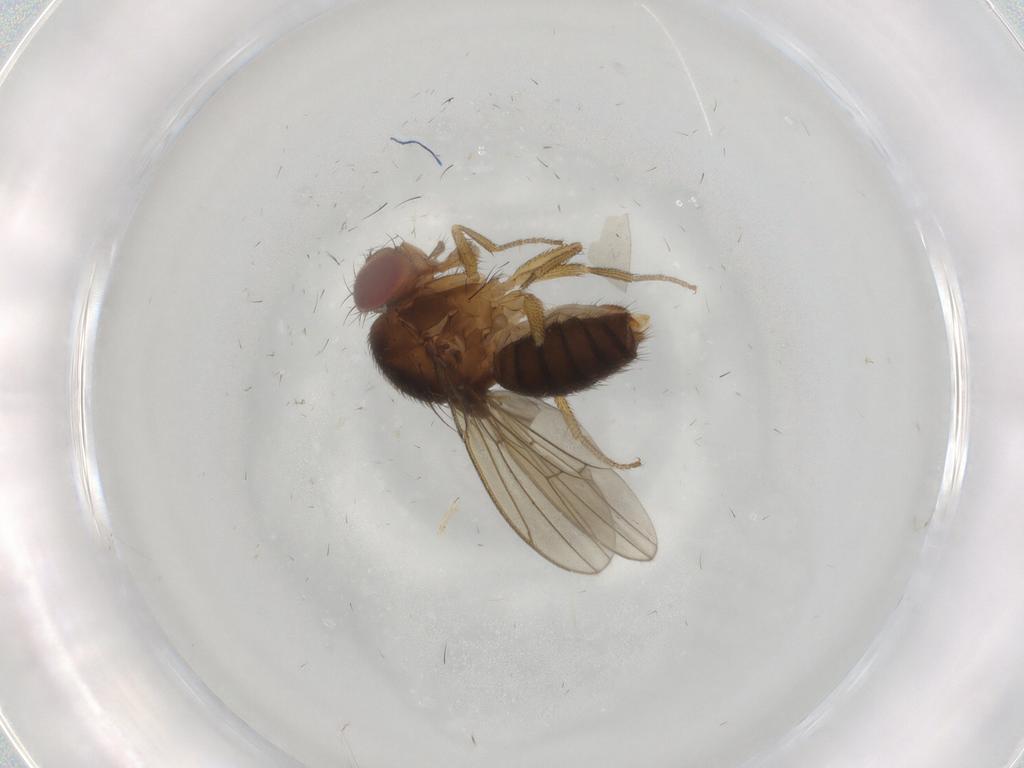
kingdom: Animalia
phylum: Arthropoda
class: Insecta
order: Diptera
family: Drosophilidae
